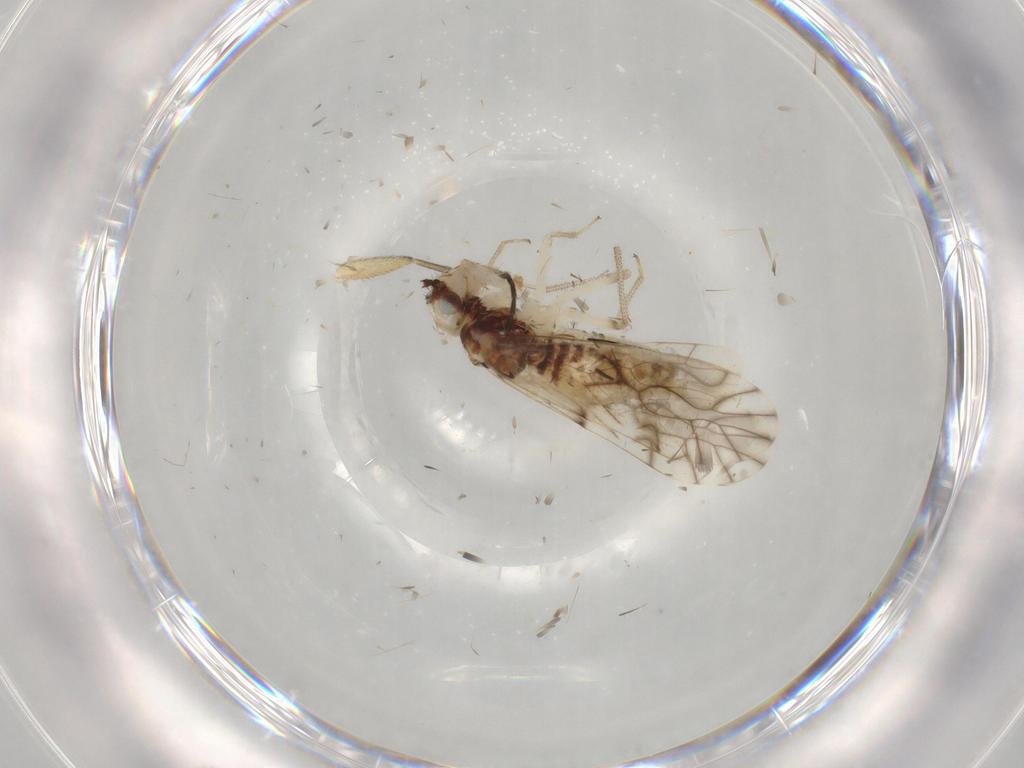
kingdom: Animalia
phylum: Arthropoda
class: Insecta
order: Psocodea
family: Caeciliusidae
